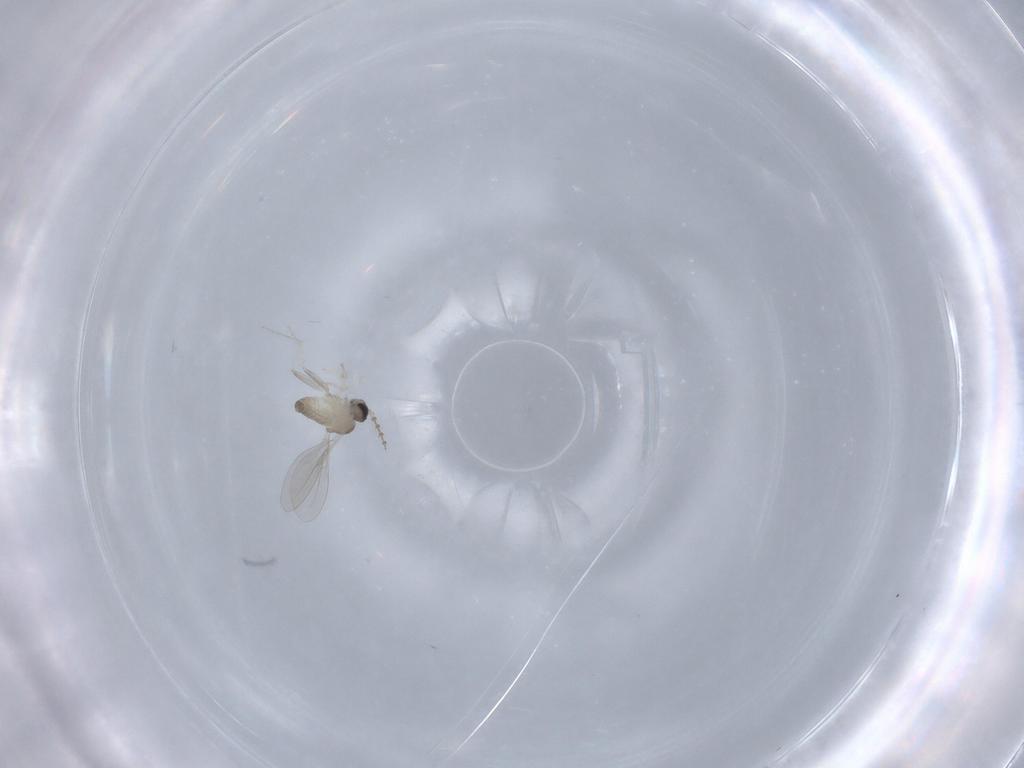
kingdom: Animalia
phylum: Arthropoda
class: Insecta
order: Diptera
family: Cecidomyiidae
